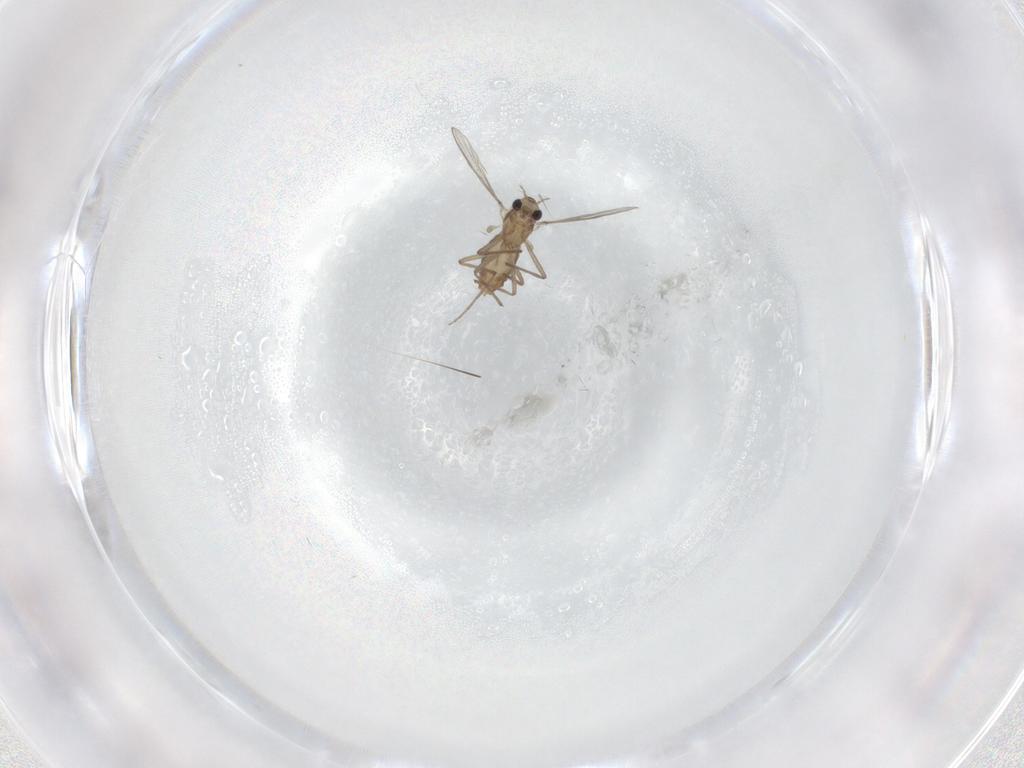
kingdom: Animalia
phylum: Arthropoda
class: Insecta
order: Diptera
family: Chironomidae
